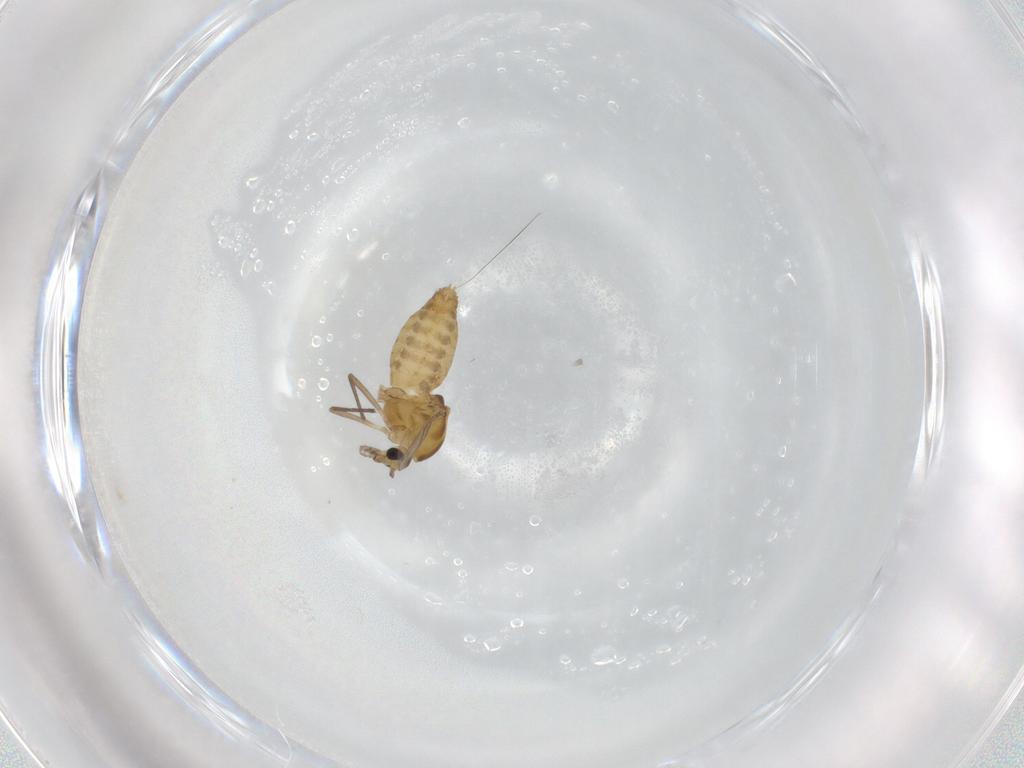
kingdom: Animalia
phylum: Arthropoda
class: Insecta
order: Diptera
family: Chironomidae
